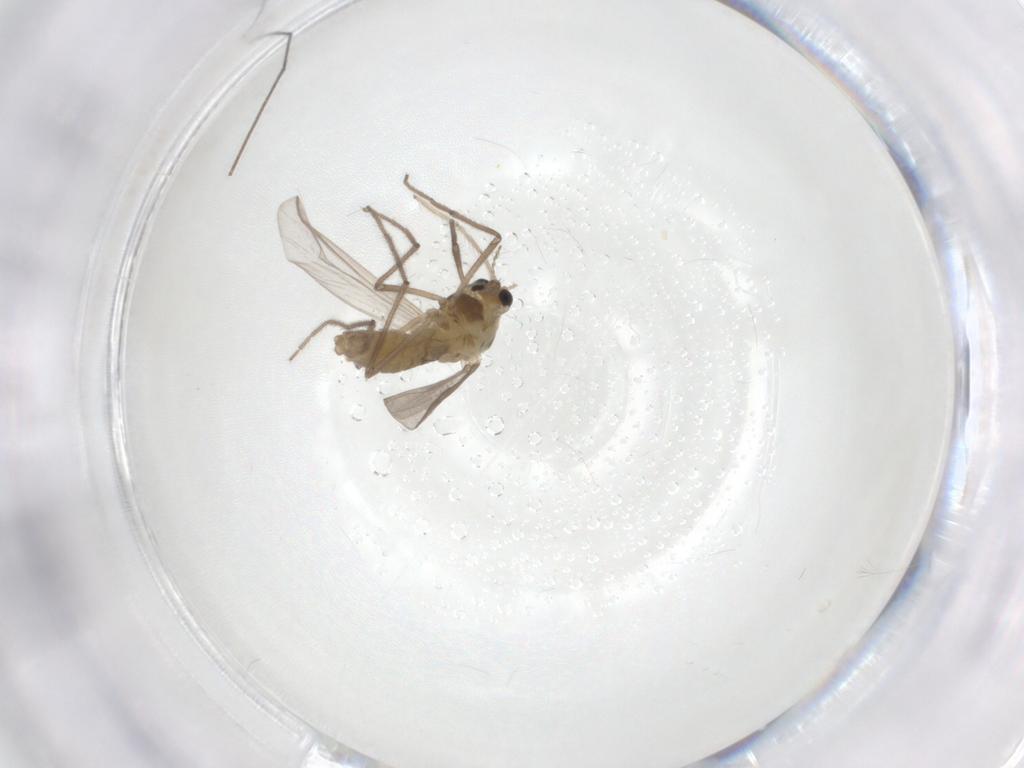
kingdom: Animalia
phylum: Arthropoda
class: Insecta
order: Diptera
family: Chironomidae
